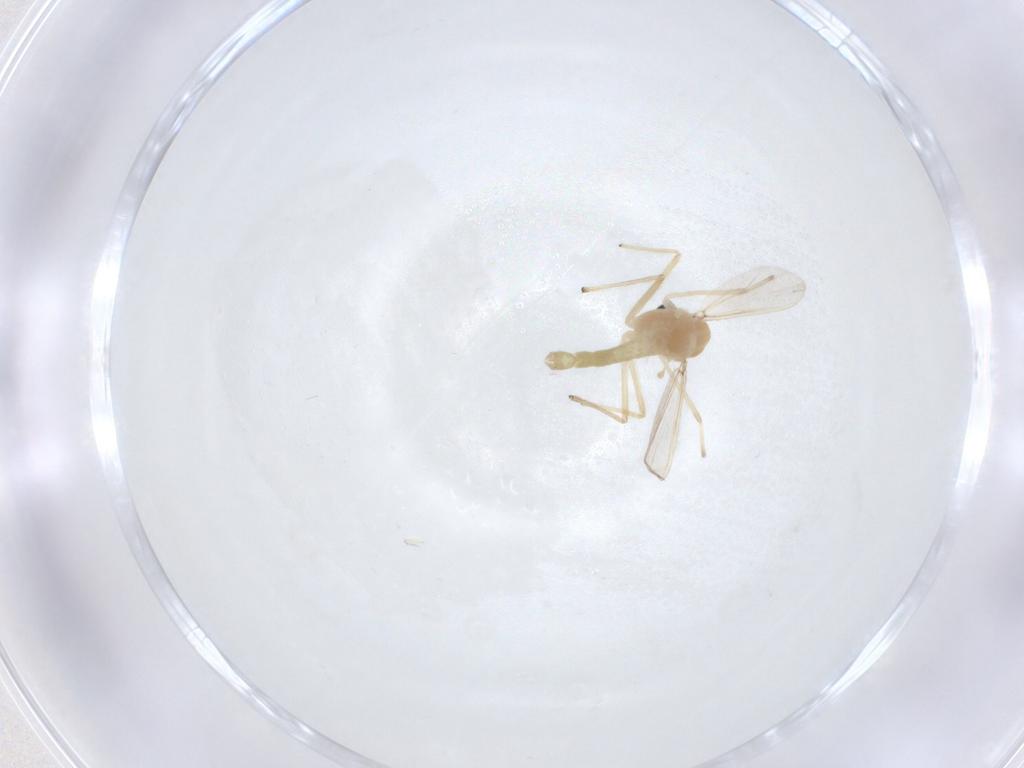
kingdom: Animalia
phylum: Arthropoda
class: Insecta
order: Diptera
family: Chironomidae
